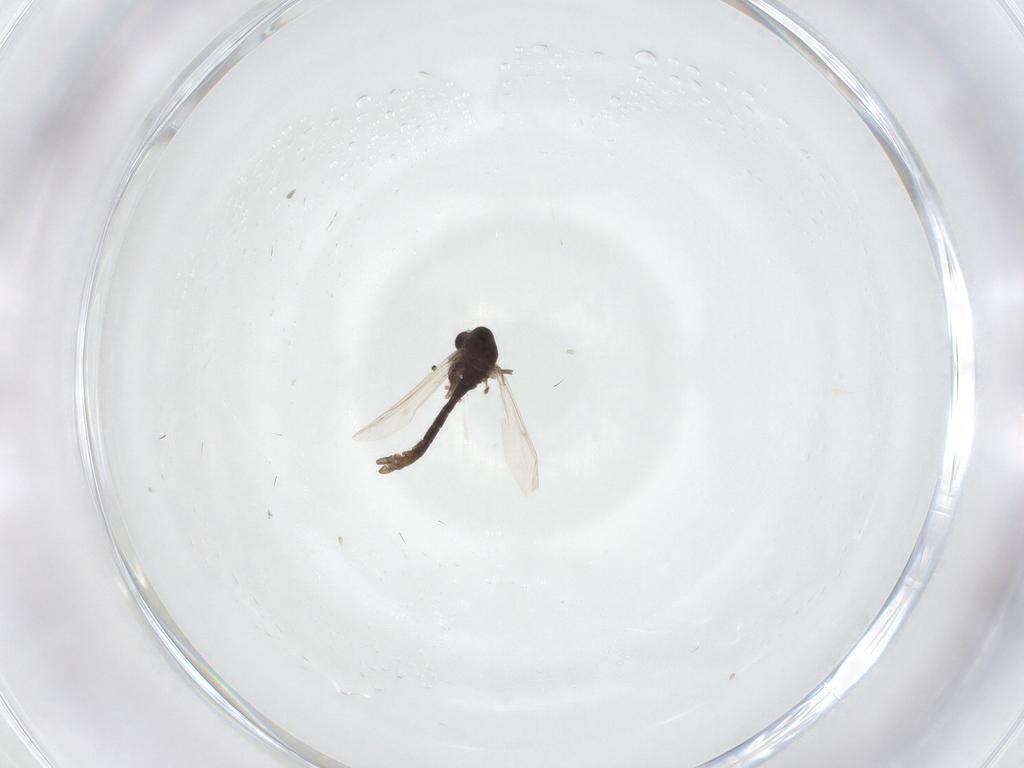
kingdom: Animalia
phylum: Arthropoda
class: Insecta
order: Diptera
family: Chironomidae
